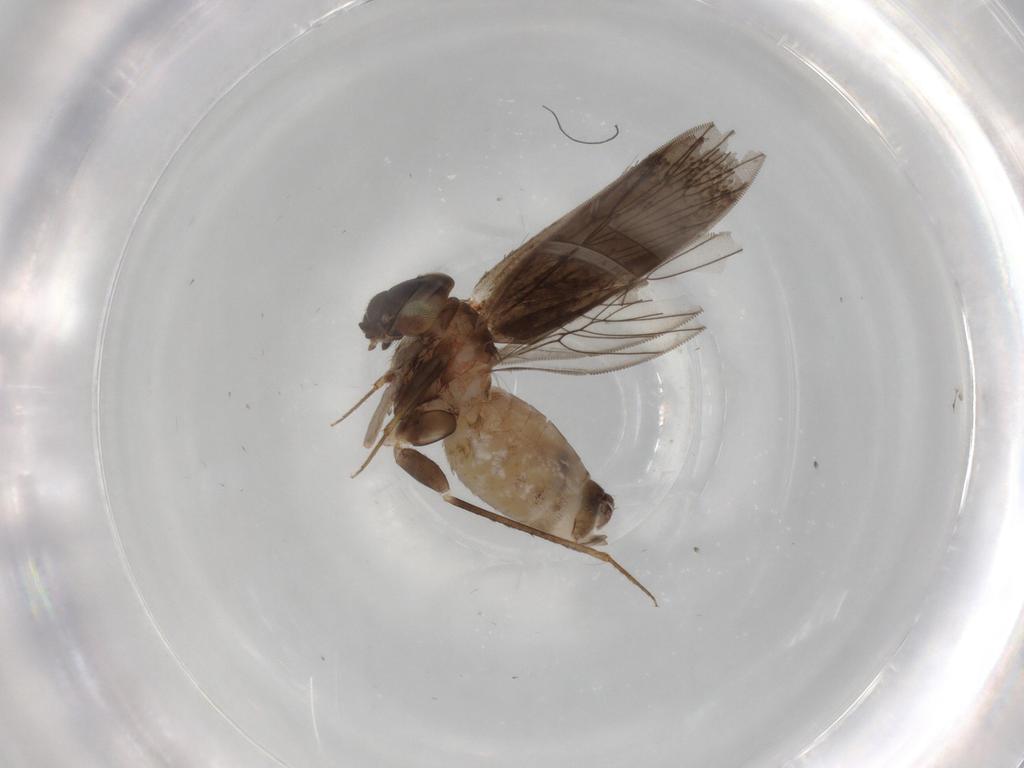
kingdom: Animalia
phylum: Arthropoda
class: Insecta
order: Psocodea
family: Lepidopsocidae
